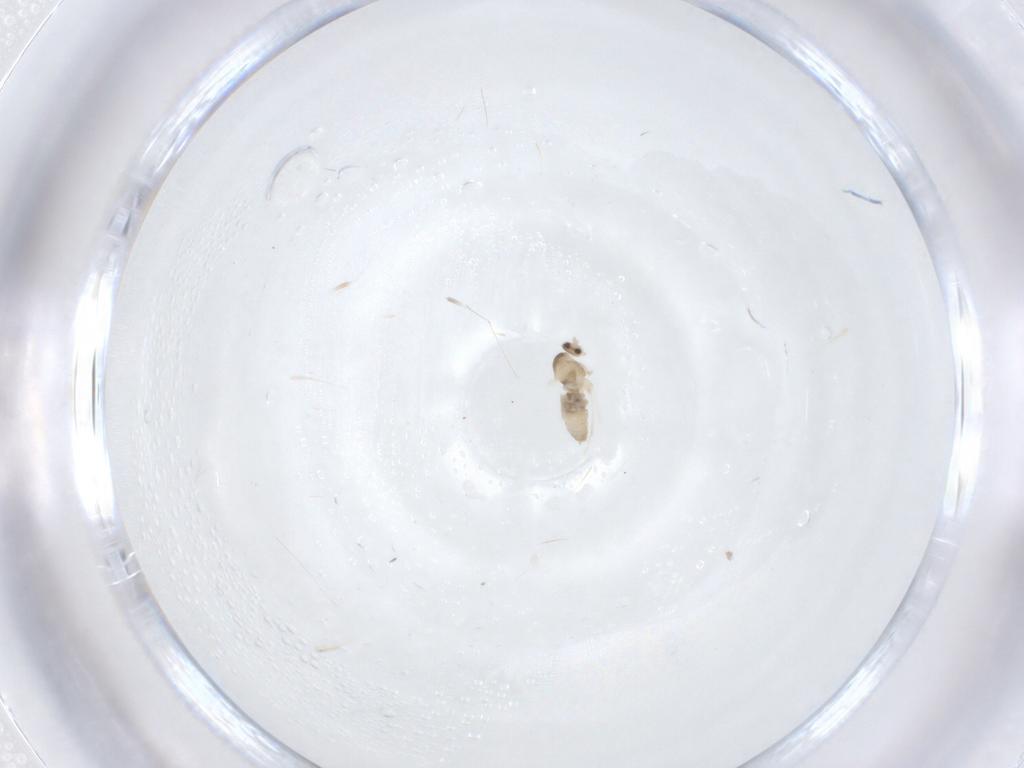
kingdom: Animalia
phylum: Arthropoda
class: Insecta
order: Diptera
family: Cecidomyiidae
